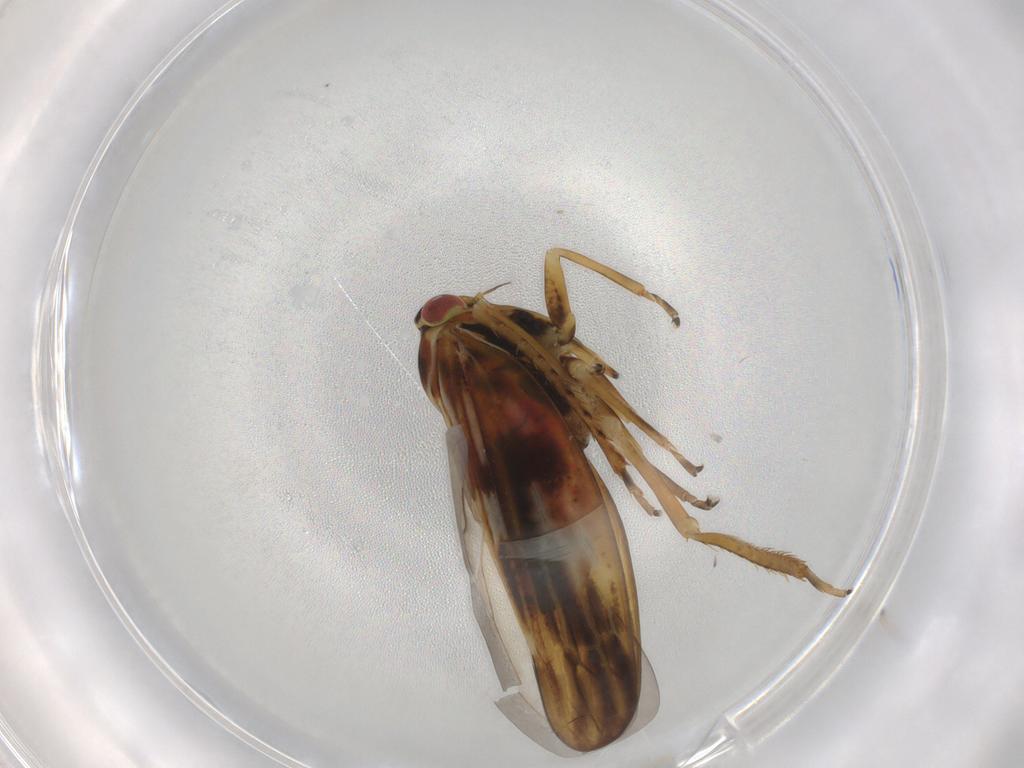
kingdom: Animalia
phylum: Arthropoda
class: Insecta
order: Hemiptera
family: Cicadellidae
